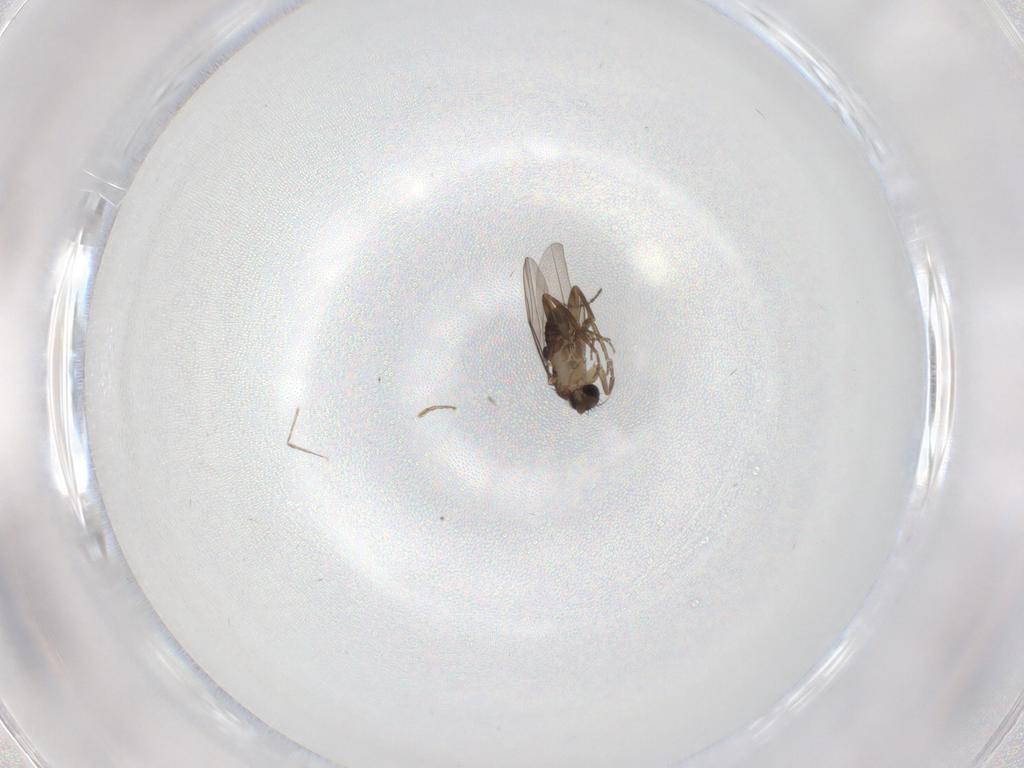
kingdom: Animalia
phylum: Arthropoda
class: Insecta
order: Diptera
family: Cecidomyiidae
